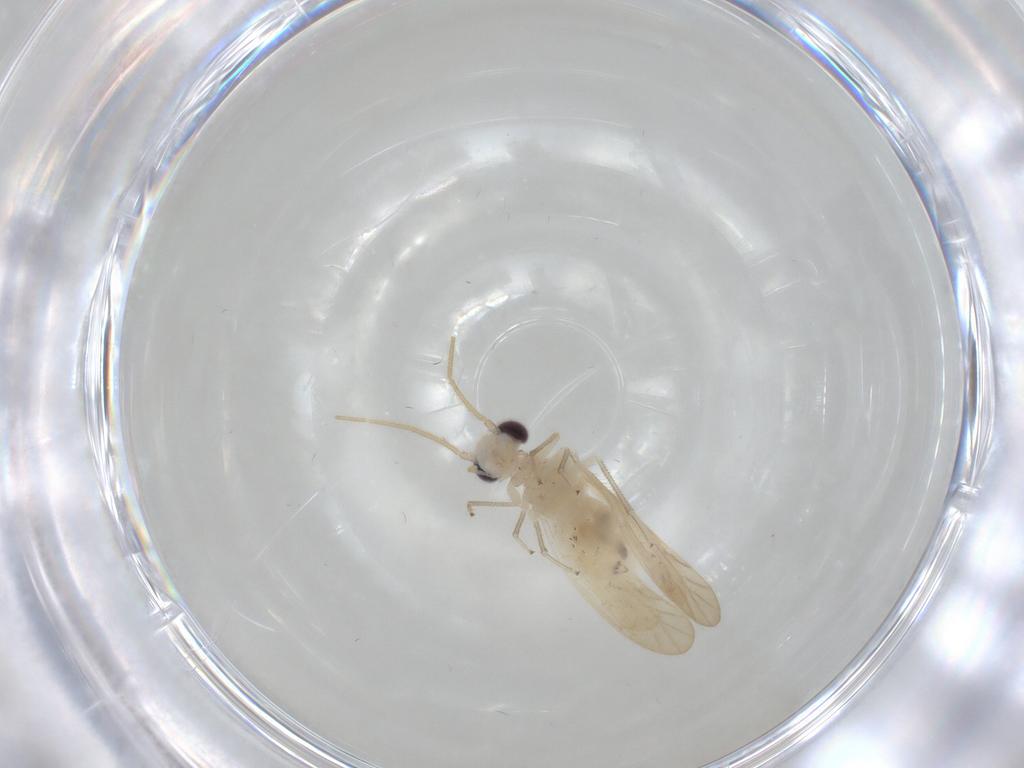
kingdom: Animalia
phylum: Arthropoda
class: Insecta
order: Psocodea
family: Caeciliusidae
